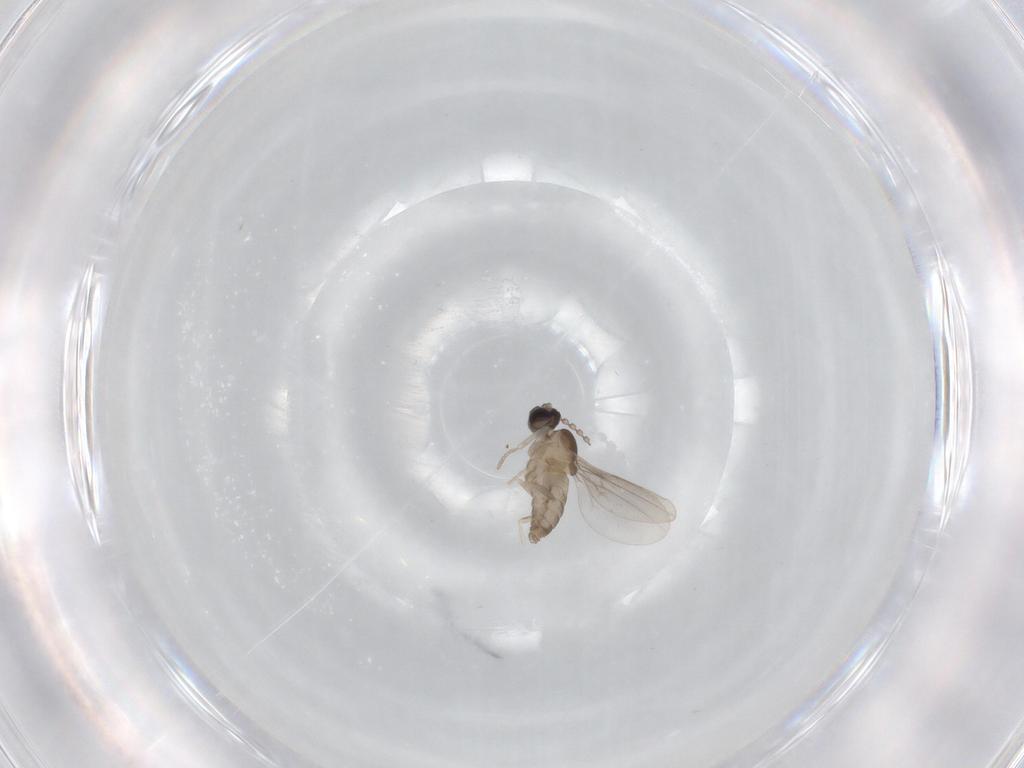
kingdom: Animalia
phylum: Arthropoda
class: Insecta
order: Diptera
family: Cecidomyiidae
